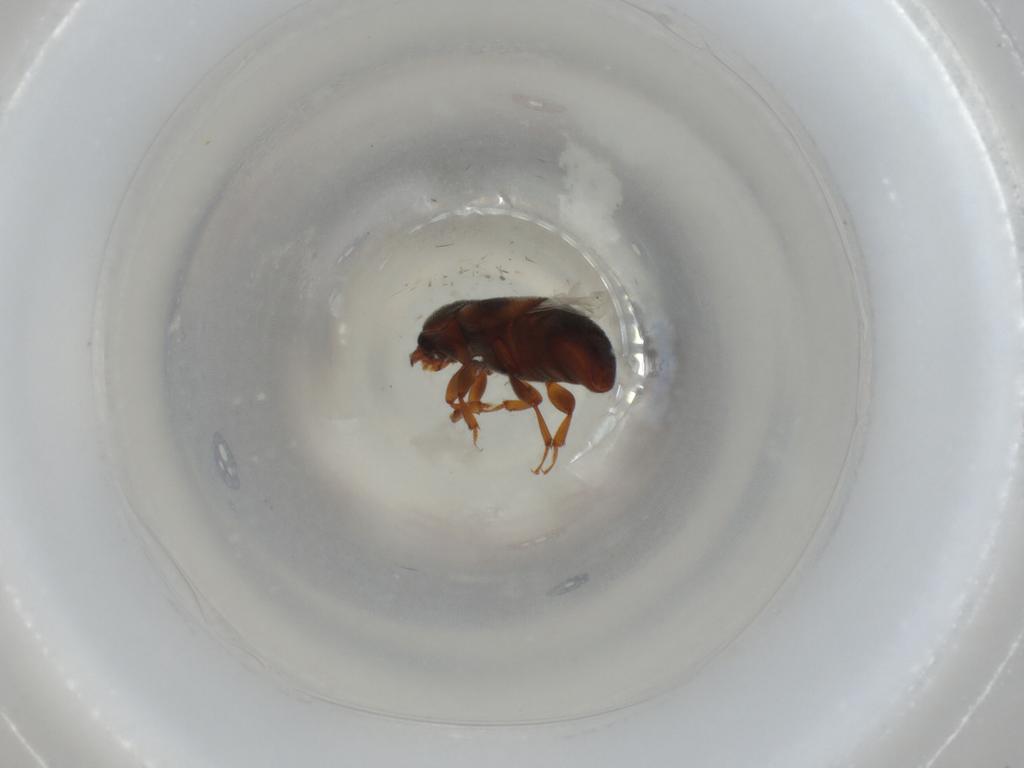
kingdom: Animalia
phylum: Arthropoda
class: Insecta
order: Coleoptera
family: Nitidulidae
